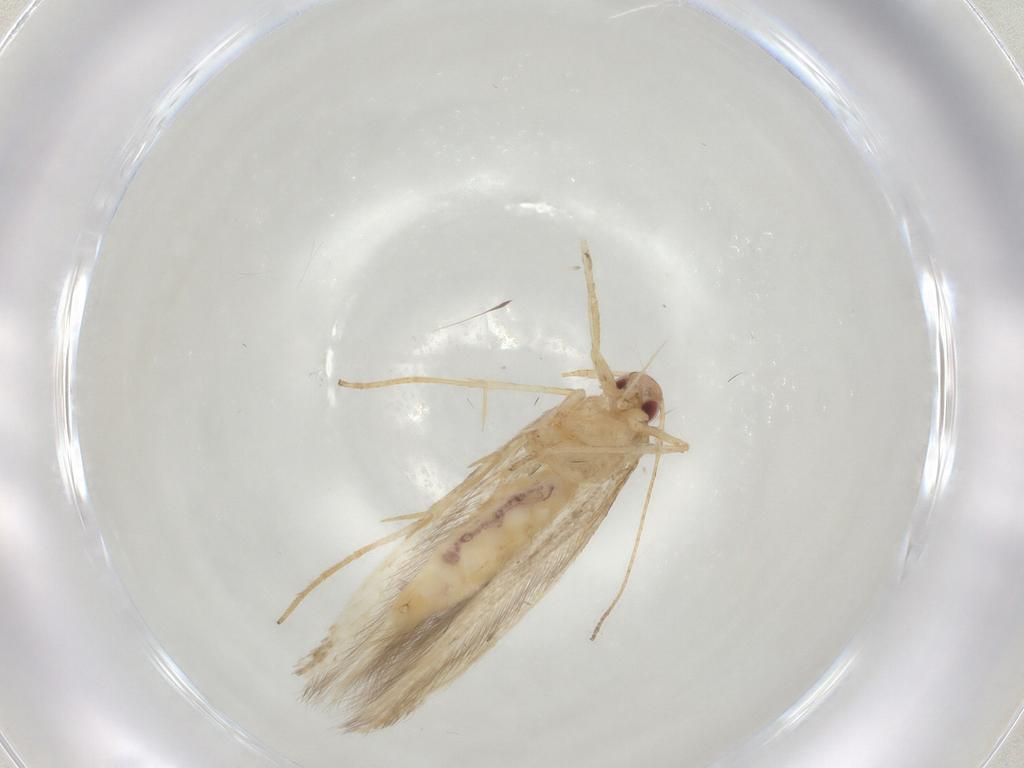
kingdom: Animalia
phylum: Arthropoda
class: Insecta
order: Lepidoptera
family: Cosmopterigidae
